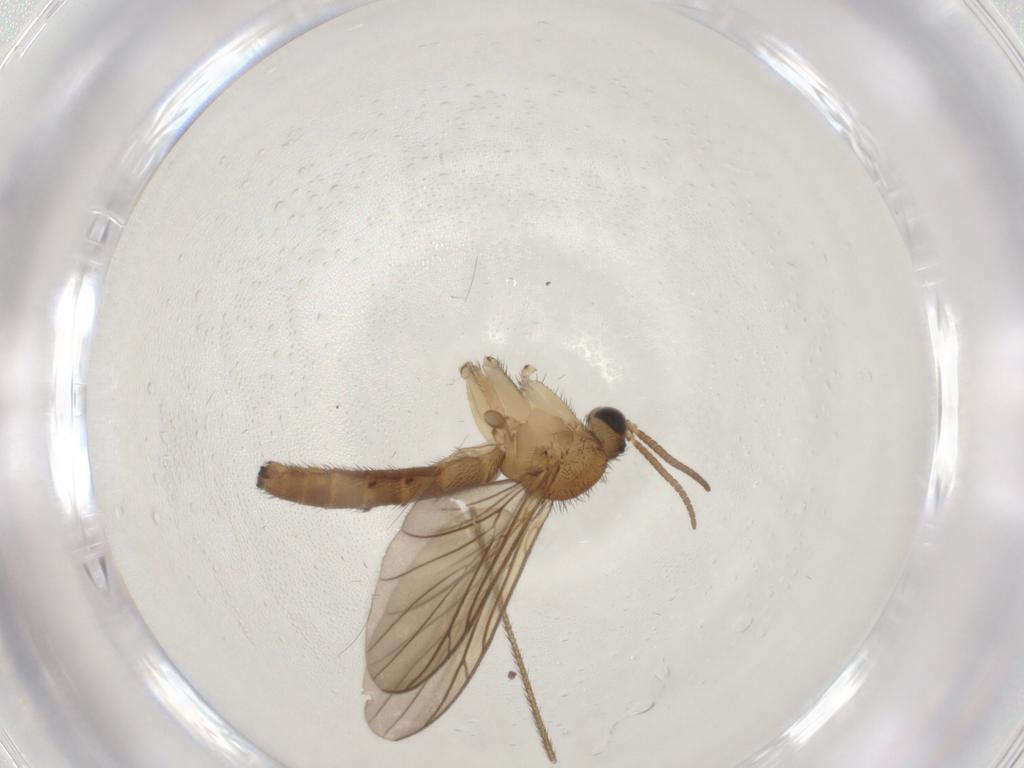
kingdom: Animalia
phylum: Arthropoda
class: Insecta
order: Diptera
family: Keroplatidae
